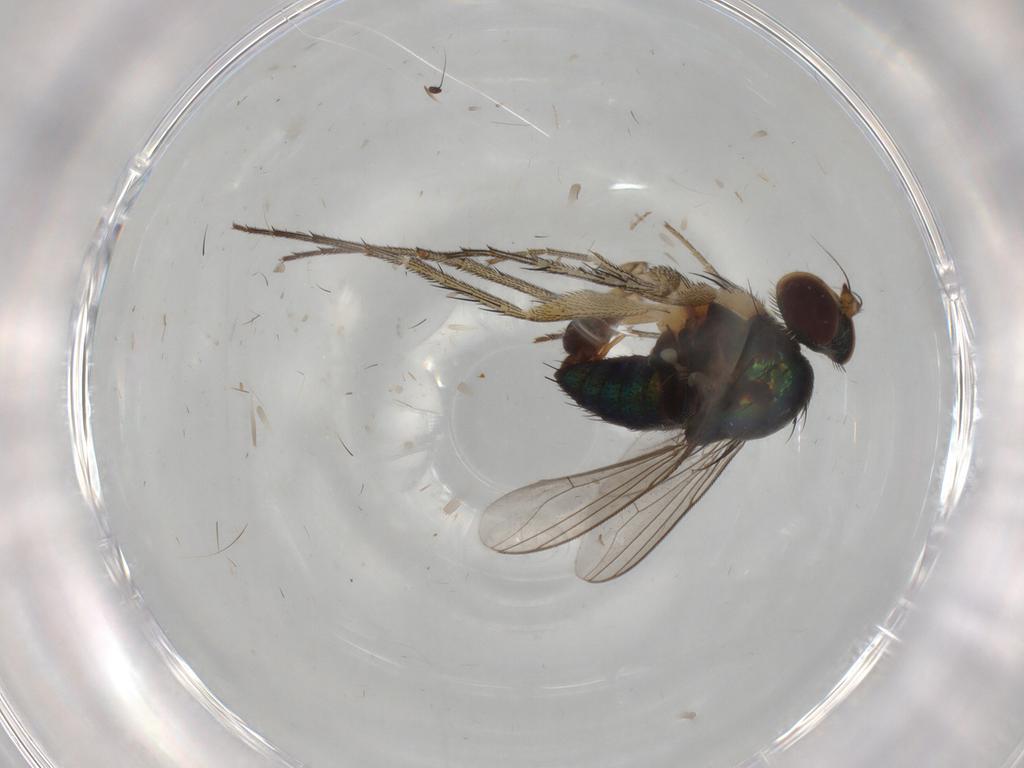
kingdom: Animalia
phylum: Arthropoda
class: Insecta
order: Diptera
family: Dolichopodidae
